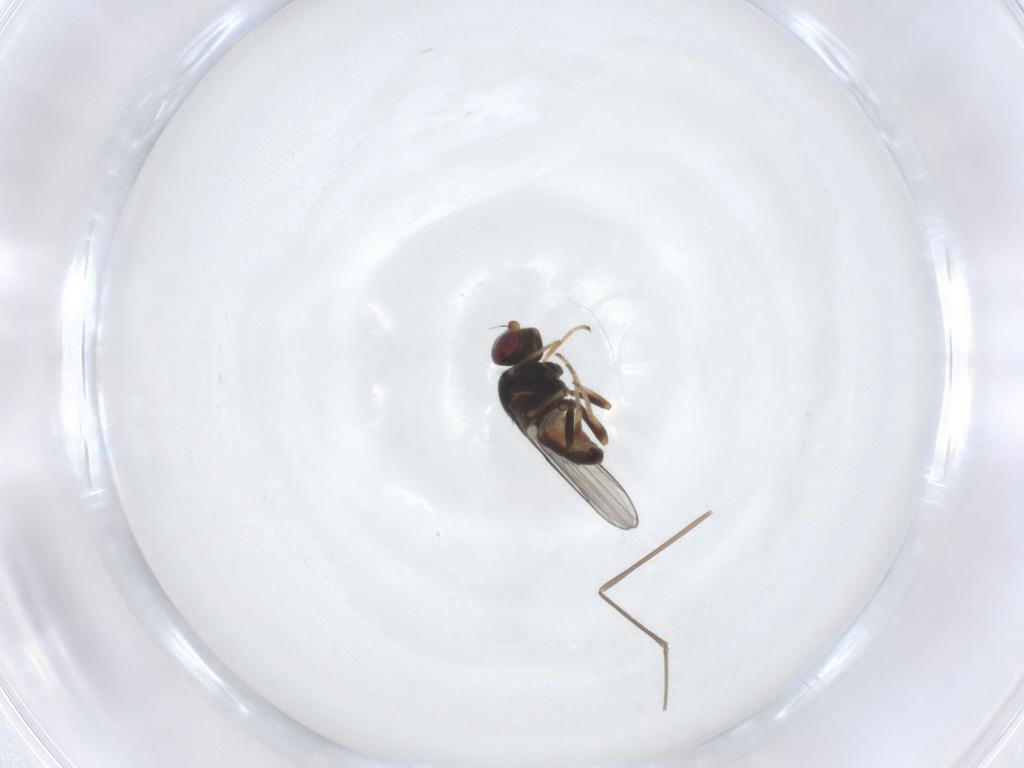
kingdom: Animalia
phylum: Arthropoda
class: Insecta
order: Diptera
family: Chloropidae
